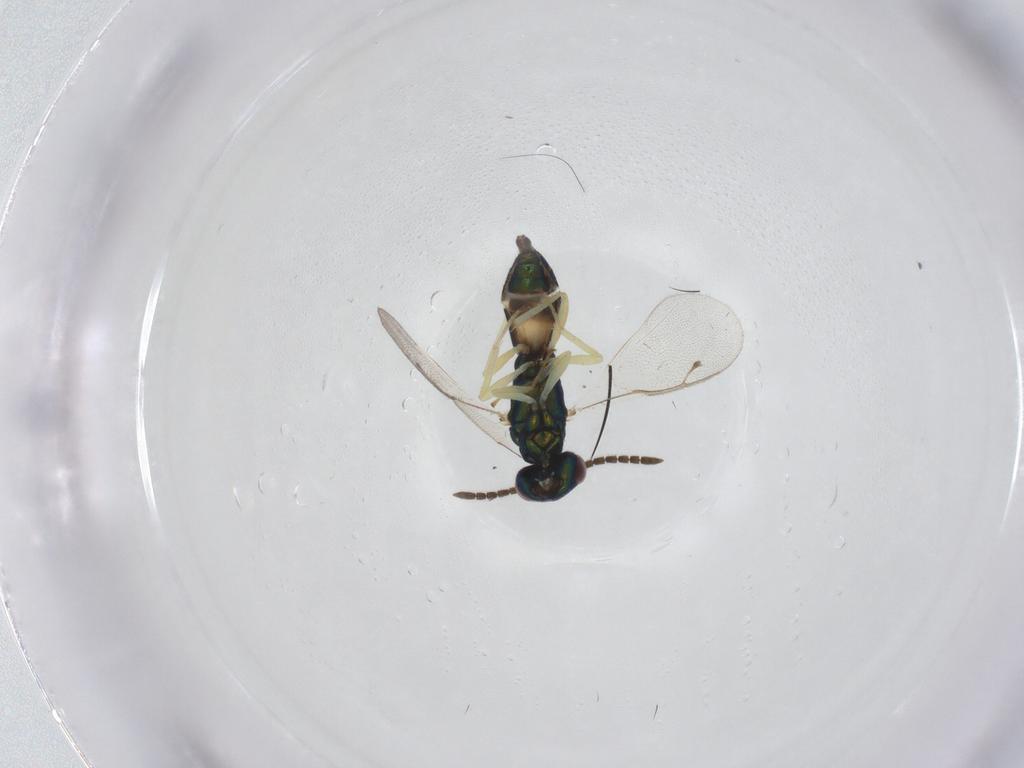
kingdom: Animalia
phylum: Arthropoda
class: Insecta
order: Hymenoptera
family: Pteromalidae
